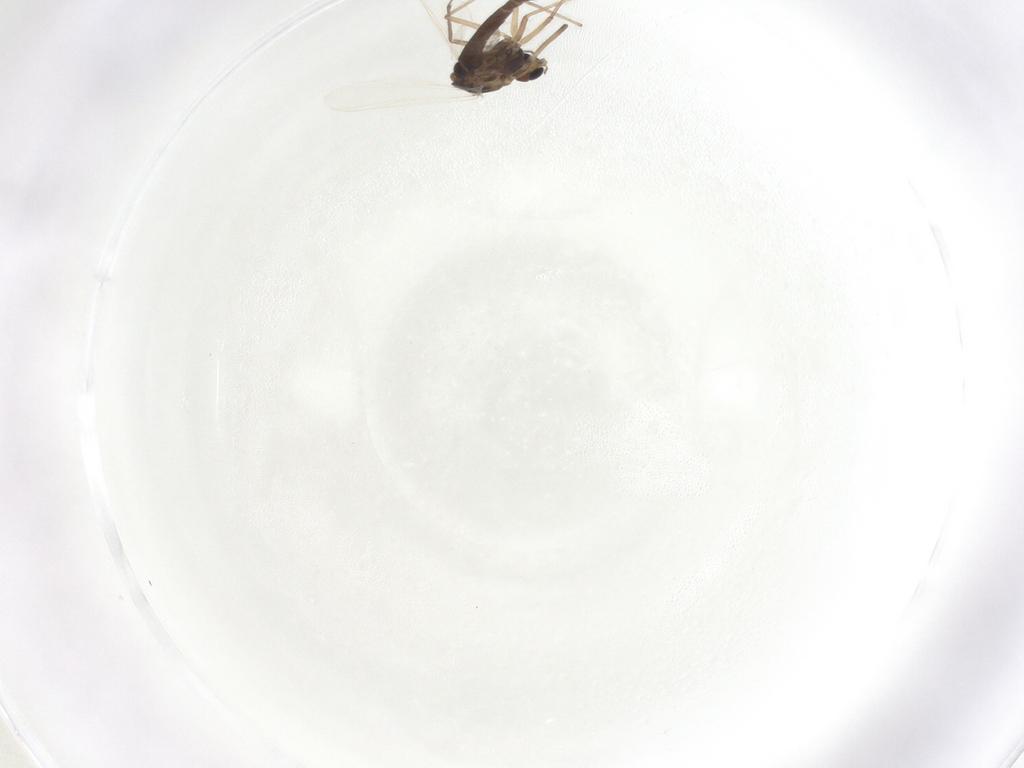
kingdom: Animalia
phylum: Arthropoda
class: Insecta
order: Diptera
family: Chironomidae
